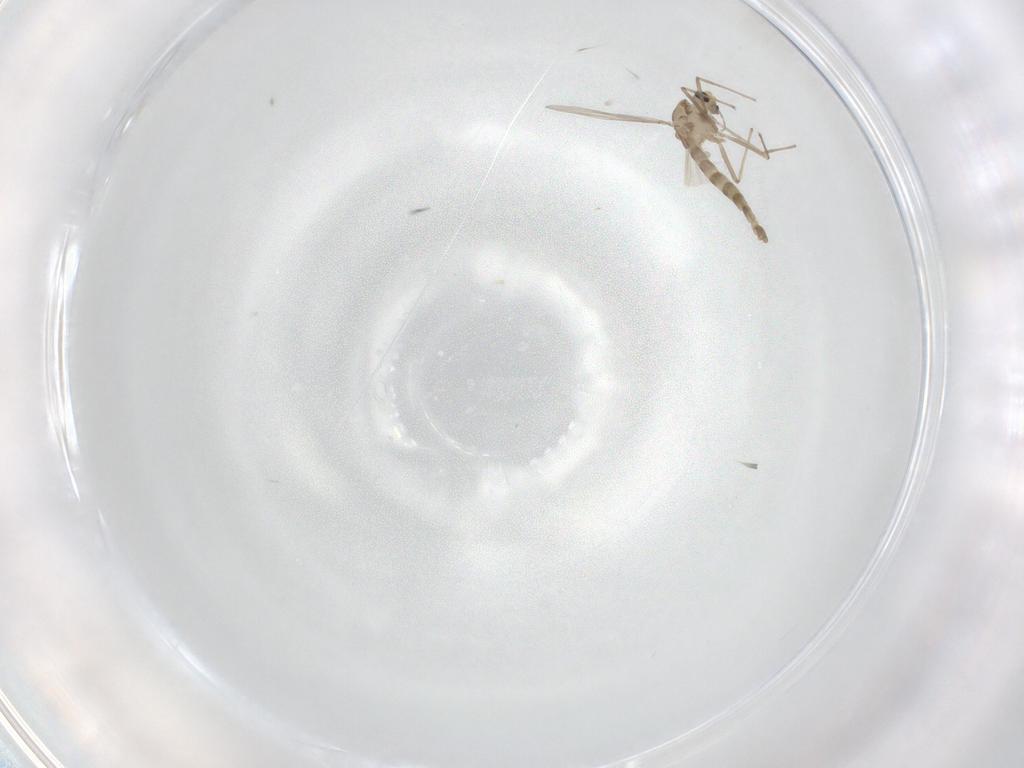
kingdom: Animalia
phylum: Arthropoda
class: Insecta
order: Diptera
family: Chironomidae
